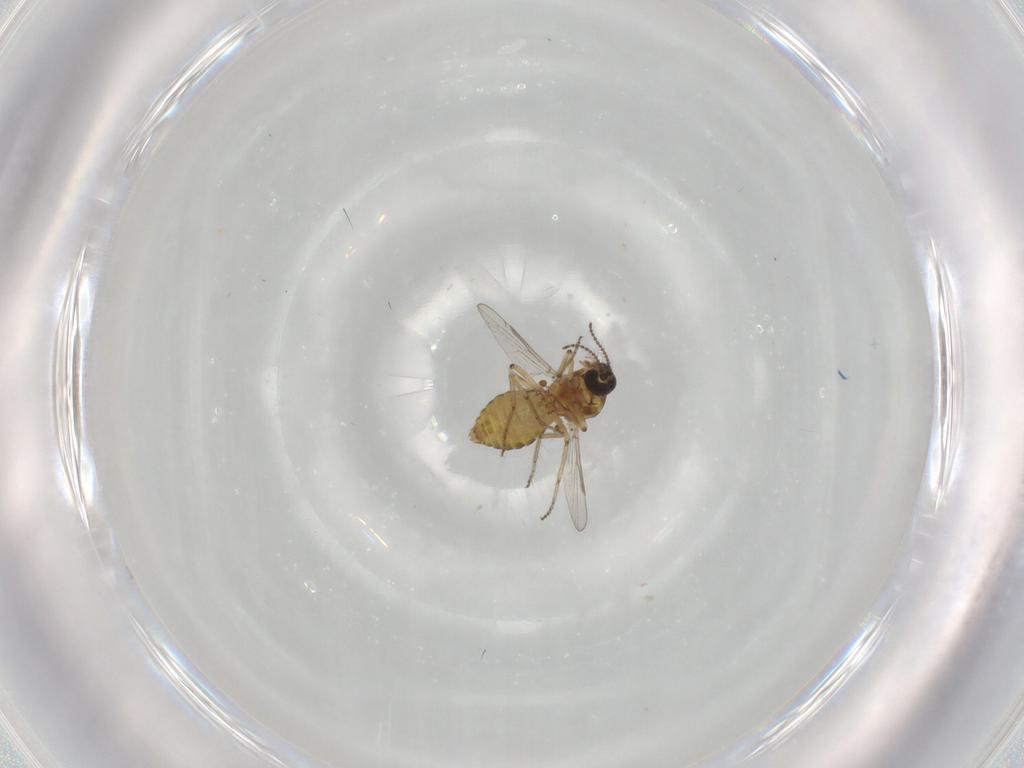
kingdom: Animalia
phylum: Arthropoda
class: Insecta
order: Diptera
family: Ceratopogonidae
